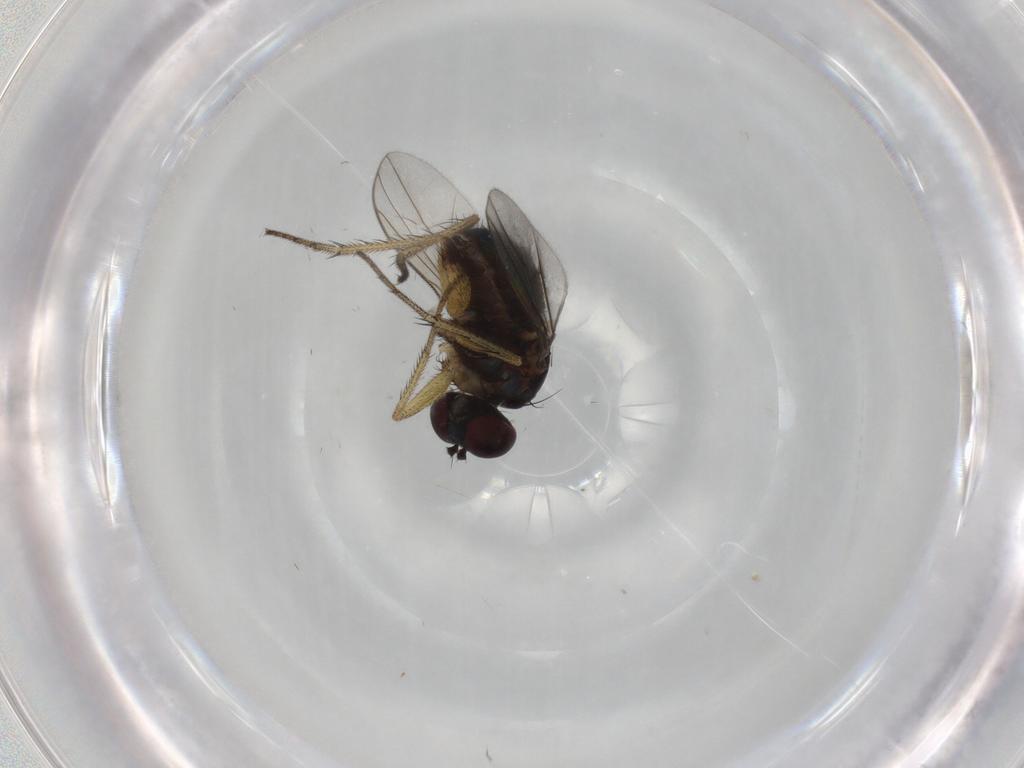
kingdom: Animalia
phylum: Arthropoda
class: Insecta
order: Diptera
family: Dolichopodidae
